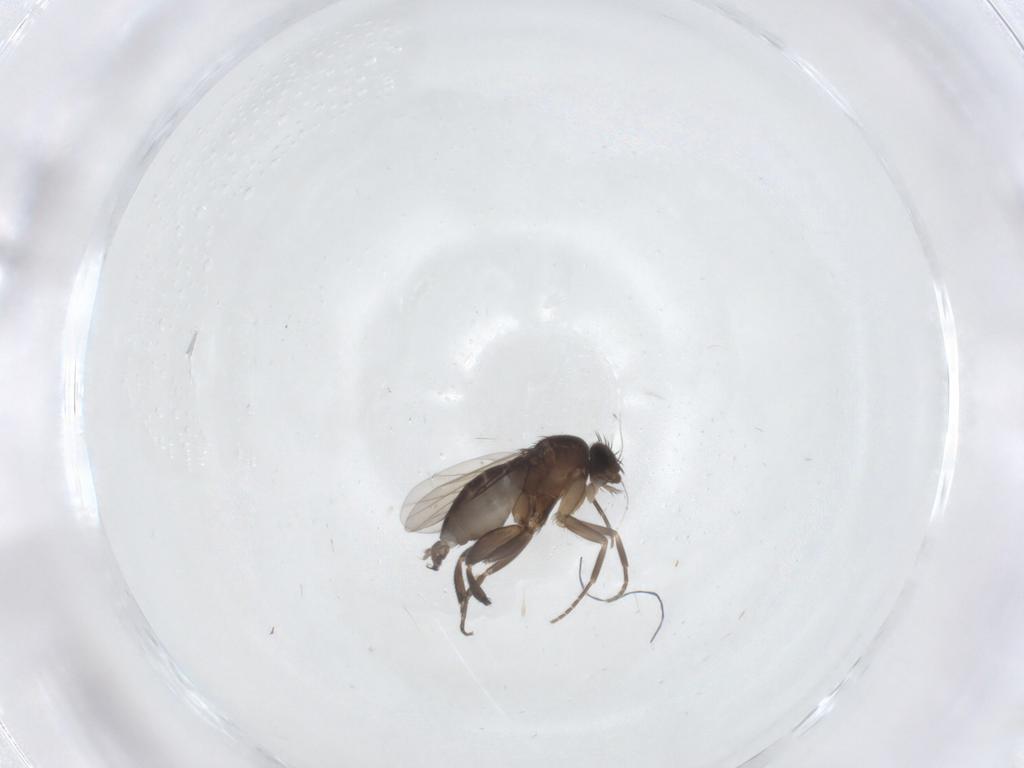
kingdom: Animalia
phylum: Arthropoda
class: Insecta
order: Diptera
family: Phoridae
